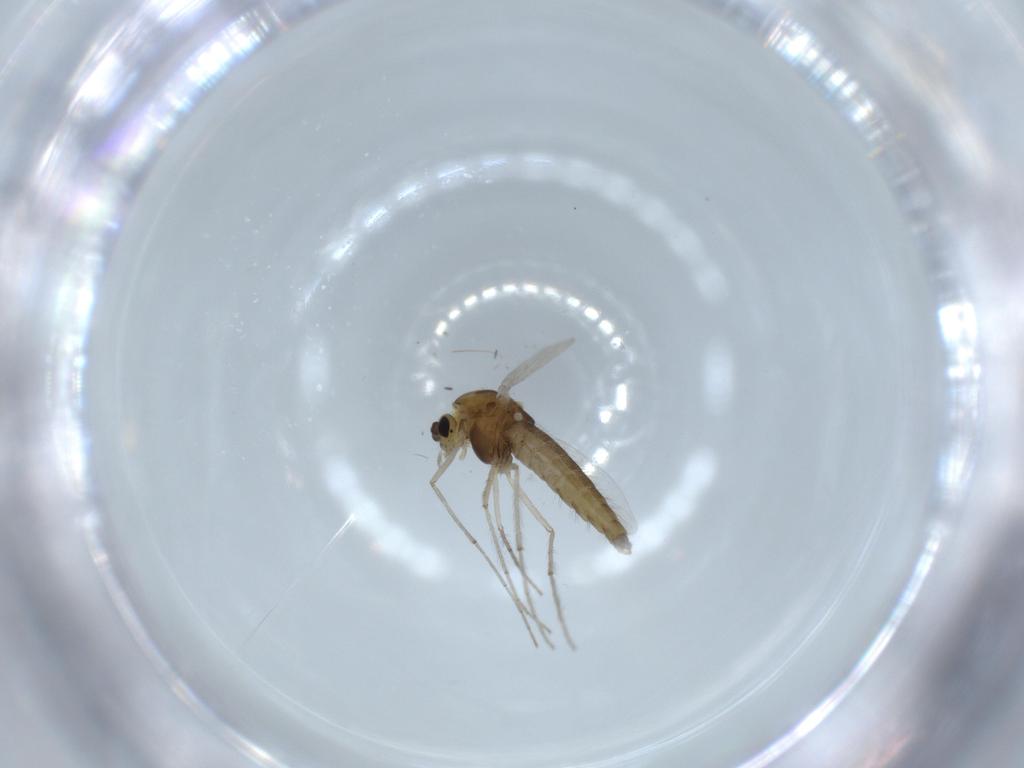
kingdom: Animalia
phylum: Arthropoda
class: Insecta
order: Diptera
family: Chironomidae
